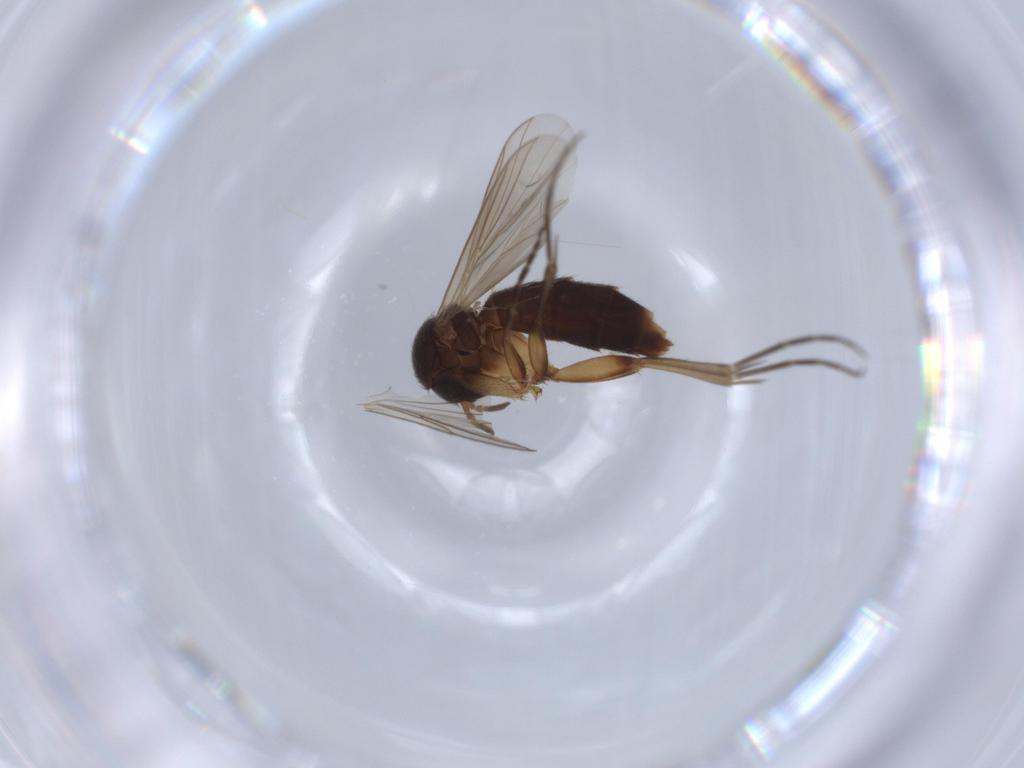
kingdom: Animalia
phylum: Arthropoda
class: Insecta
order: Diptera
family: Mycetophilidae
